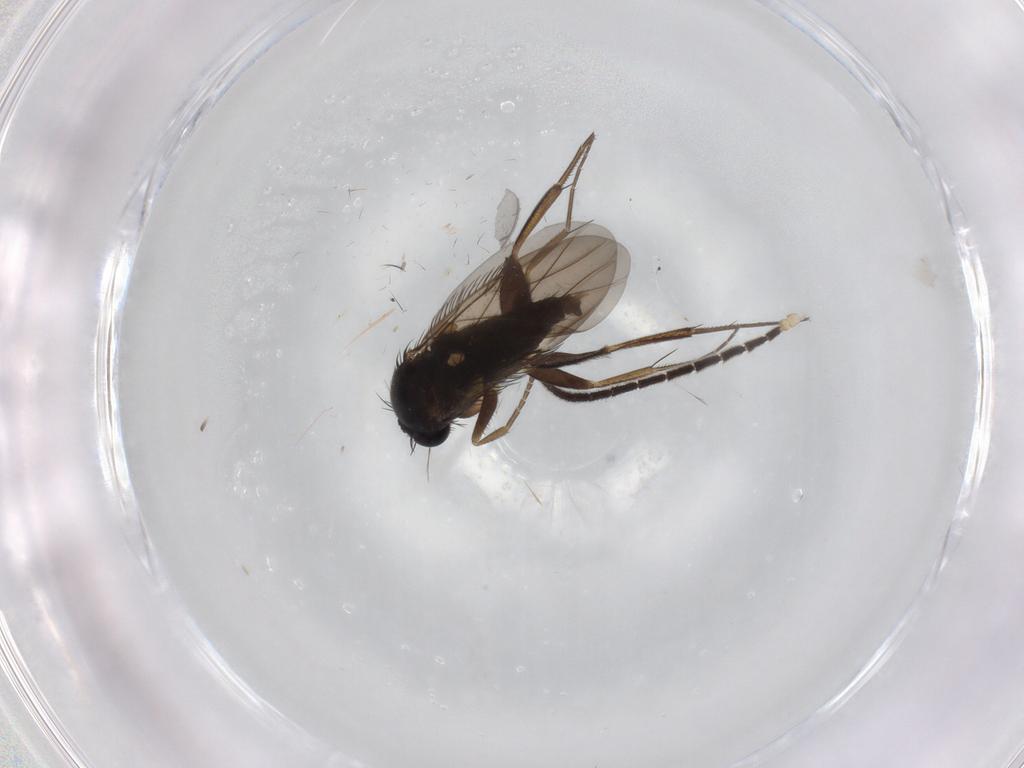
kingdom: Animalia
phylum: Arthropoda
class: Insecta
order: Diptera
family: Phoridae
